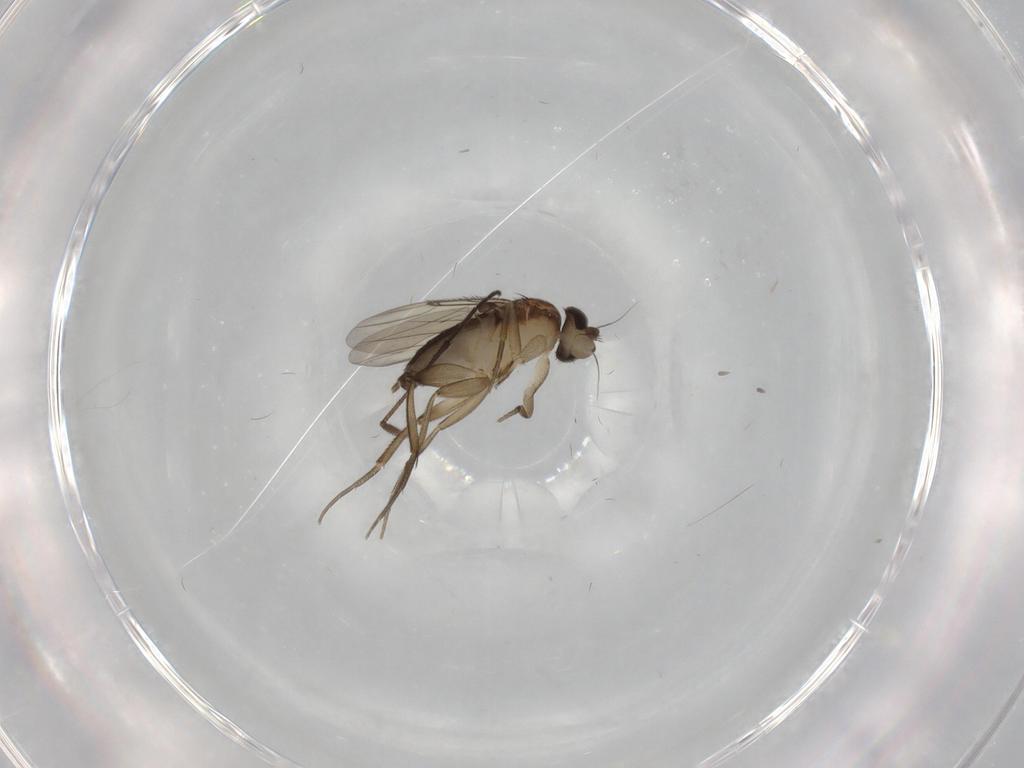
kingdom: Animalia
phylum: Arthropoda
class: Insecta
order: Diptera
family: Phoridae
